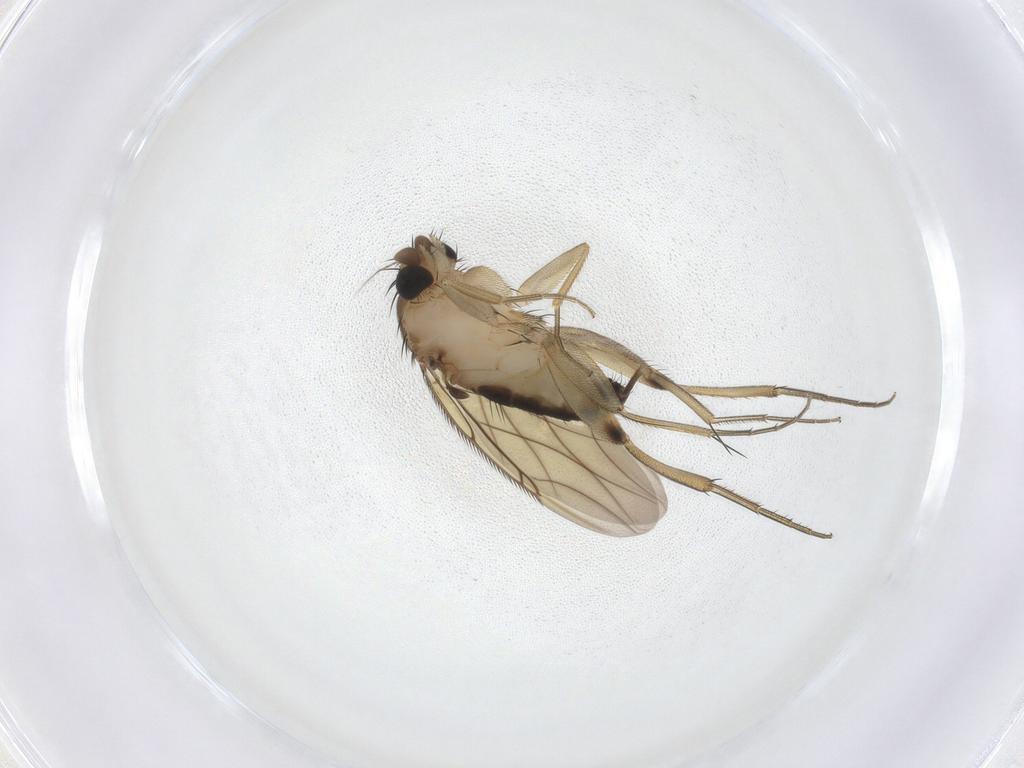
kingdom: Animalia
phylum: Arthropoda
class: Insecta
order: Diptera
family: Phoridae
